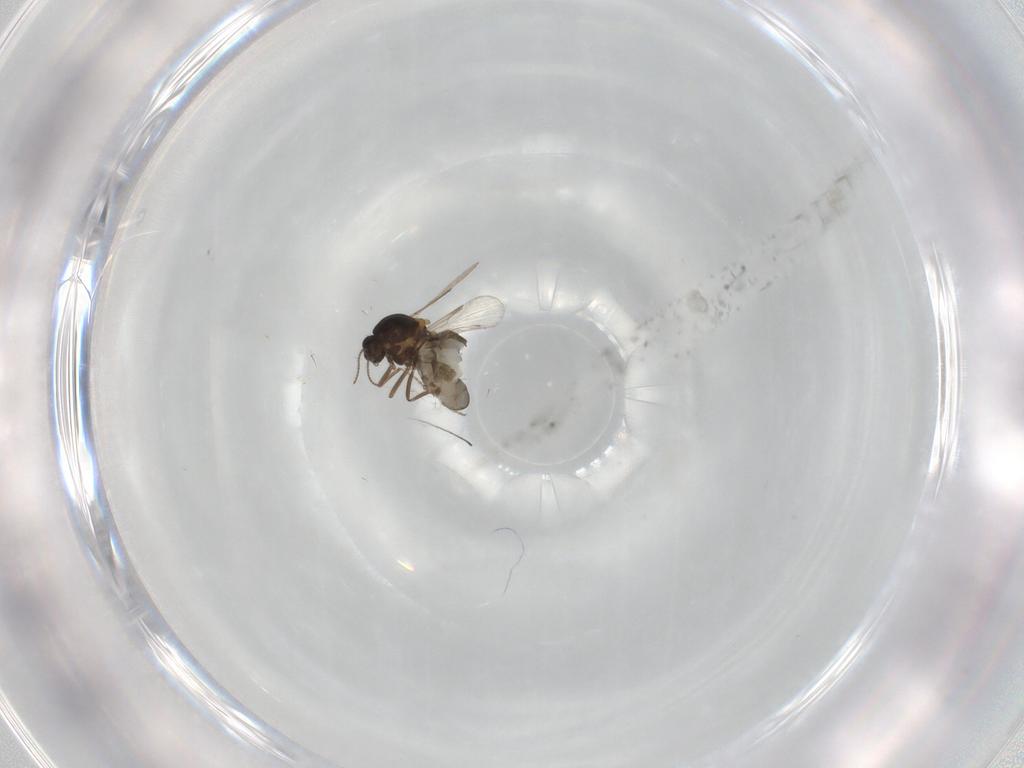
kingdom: Animalia
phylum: Arthropoda
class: Insecta
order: Diptera
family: Ceratopogonidae
